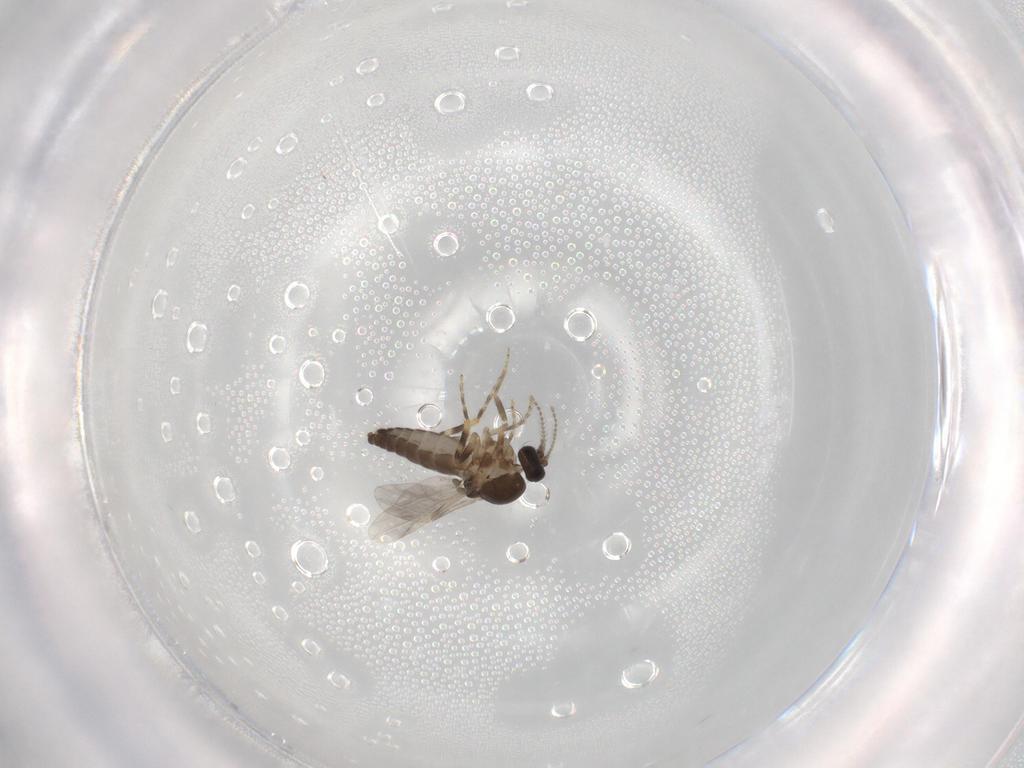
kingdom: Animalia
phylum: Arthropoda
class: Insecta
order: Diptera
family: Ceratopogonidae
